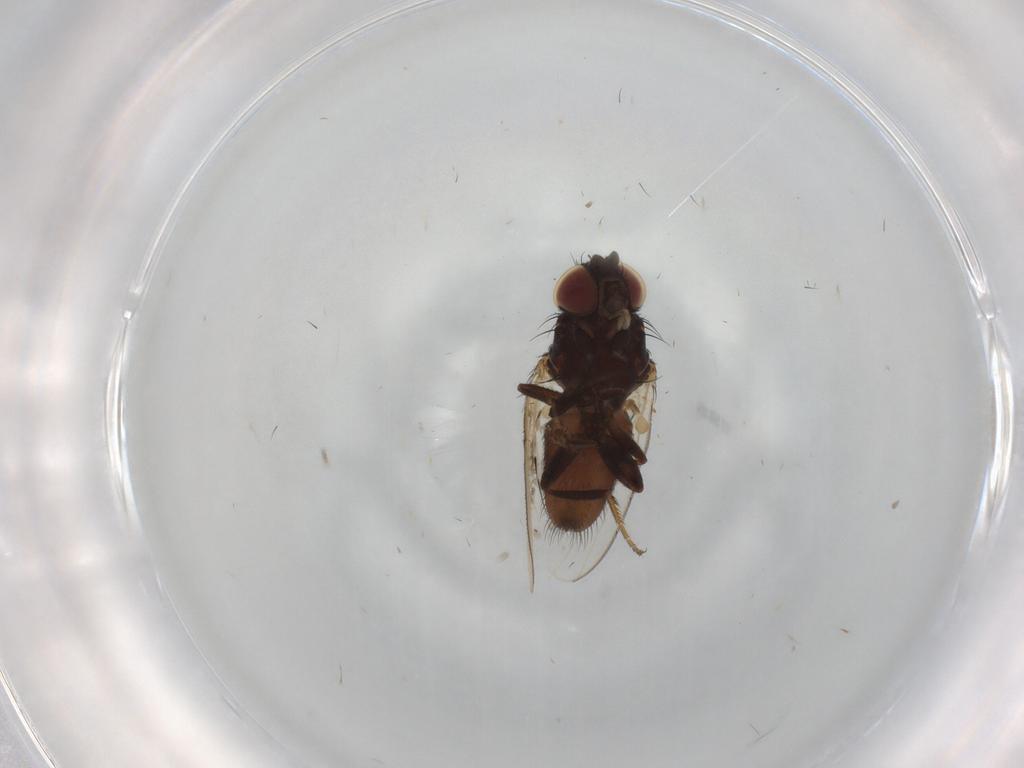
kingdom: Animalia
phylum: Arthropoda
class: Insecta
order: Diptera
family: Milichiidae
